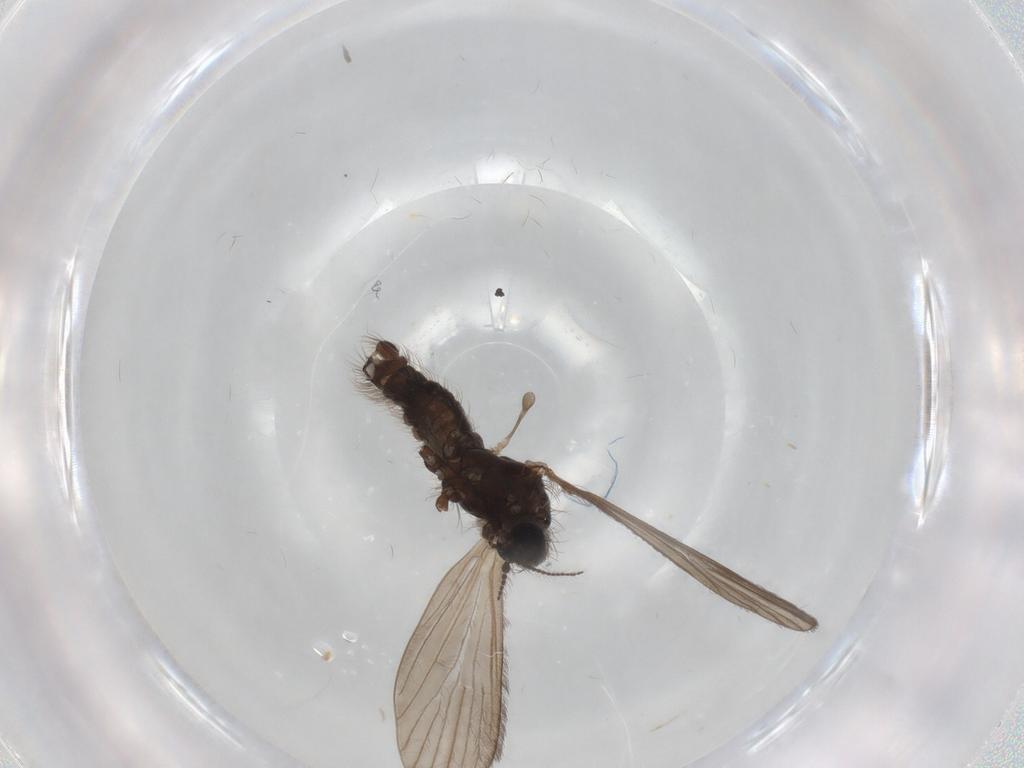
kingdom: Animalia
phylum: Arthropoda
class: Insecta
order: Diptera
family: Limoniidae
